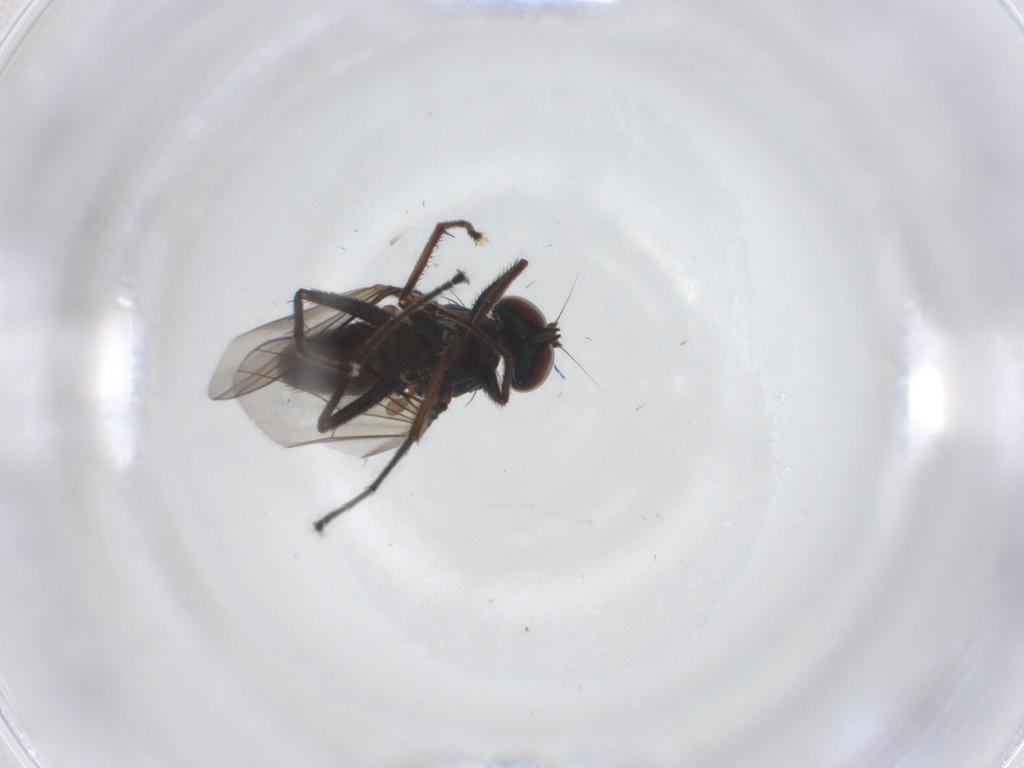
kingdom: Animalia
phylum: Arthropoda
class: Insecta
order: Diptera
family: Dolichopodidae
